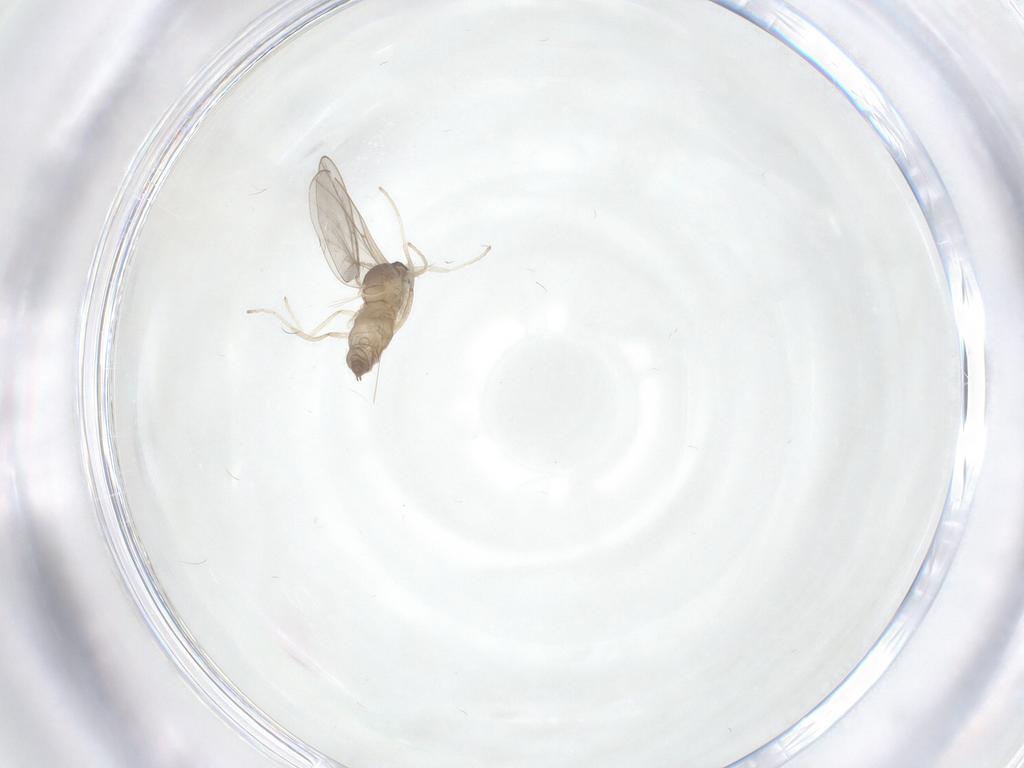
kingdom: Animalia
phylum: Arthropoda
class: Insecta
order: Diptera
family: Cecidomyiidae
